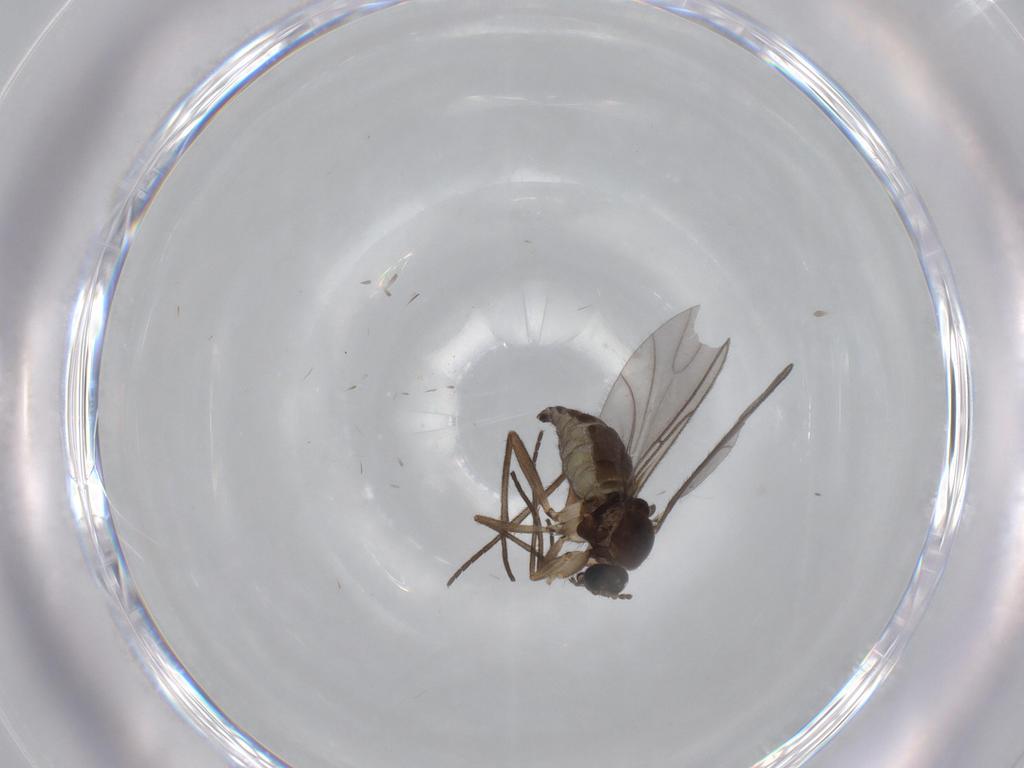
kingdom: Animalia
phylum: Arthropoda
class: Insecta
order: Diptera
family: Sciaridae
